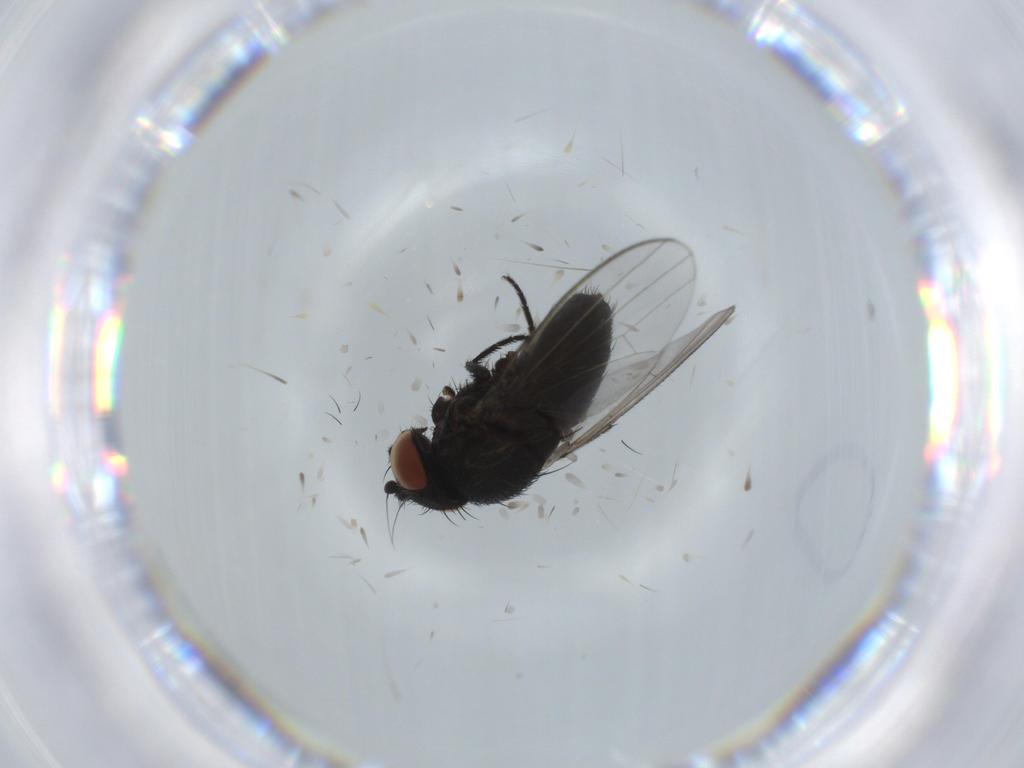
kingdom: Animalia
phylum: Arthropoda
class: Insecta
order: Diptera
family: Milichiidae
